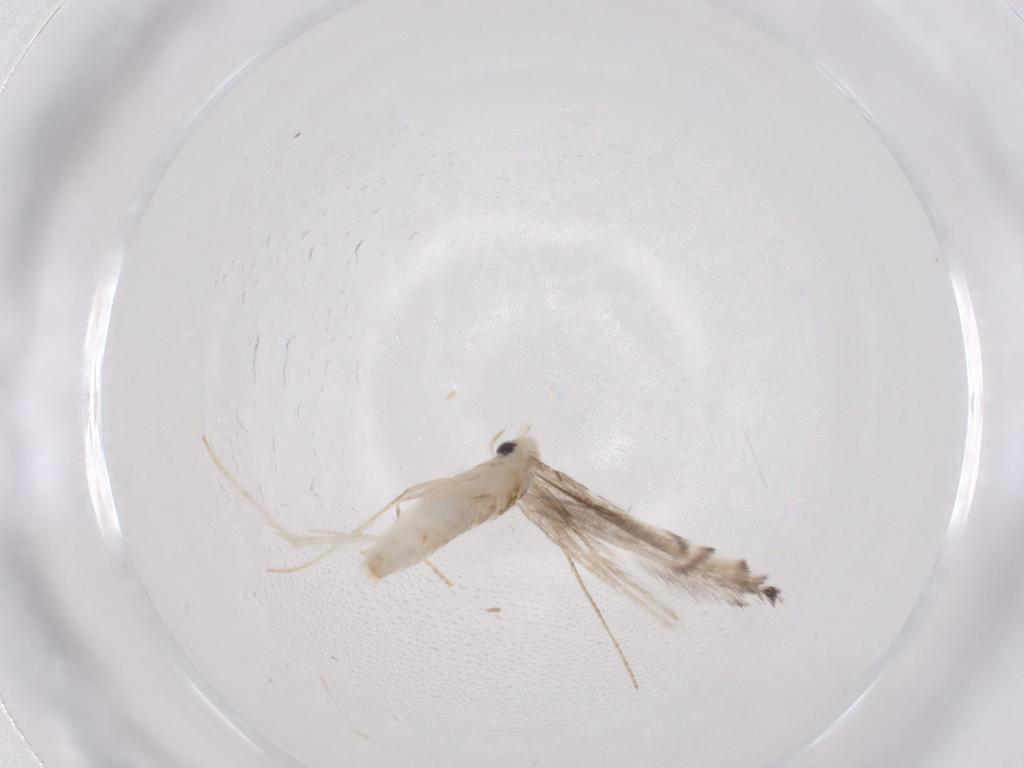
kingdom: Animalia
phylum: Arthropoda
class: Insecta
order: Lepidoptera
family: Gracillariidae
